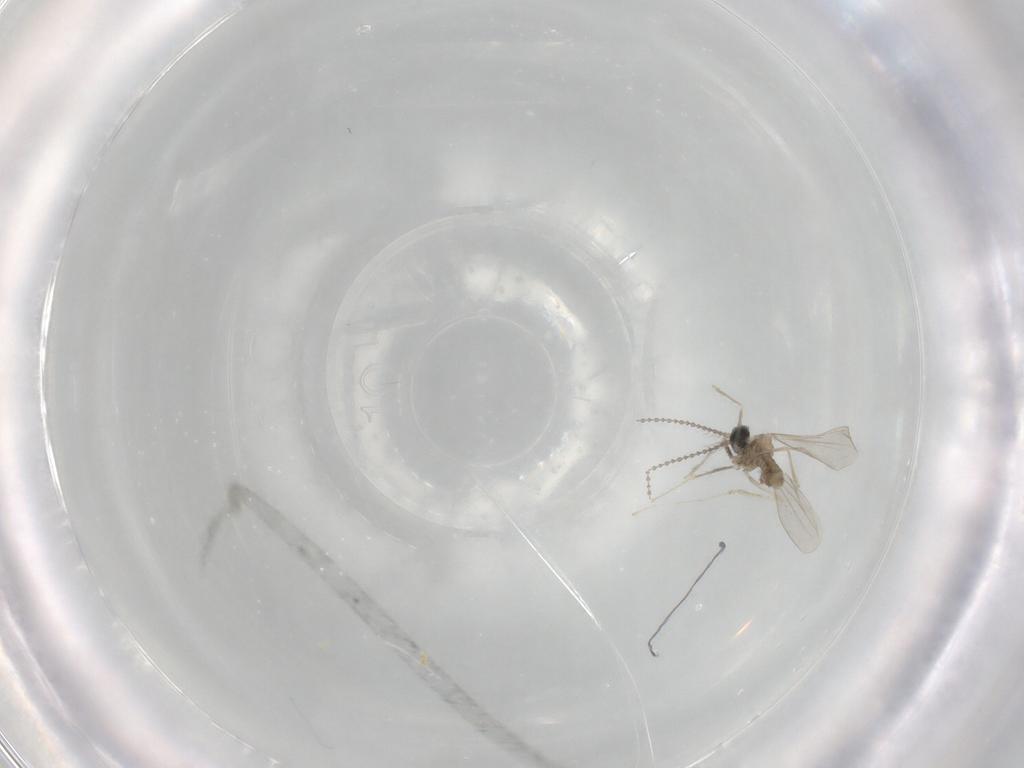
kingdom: Animalia
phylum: Arthropoda
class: Insecta
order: Diptera
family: Cecidomyiidae
